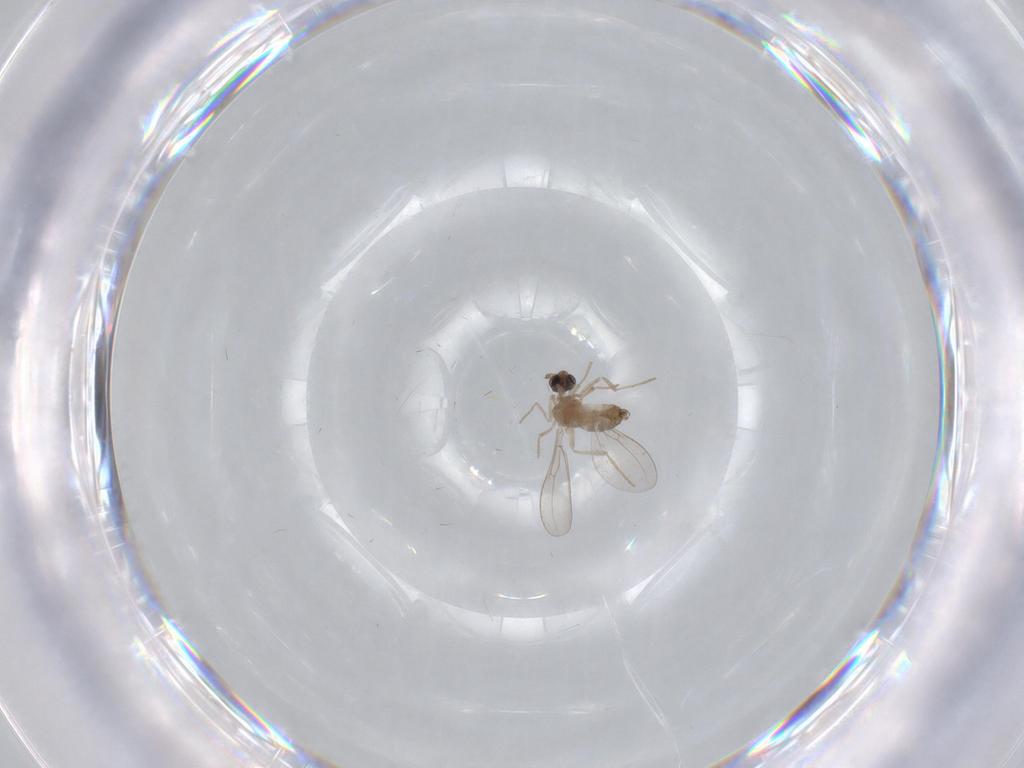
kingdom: Animalia
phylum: Arthropoda
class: Insecta
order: Diptera
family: Cecidomyiidae
